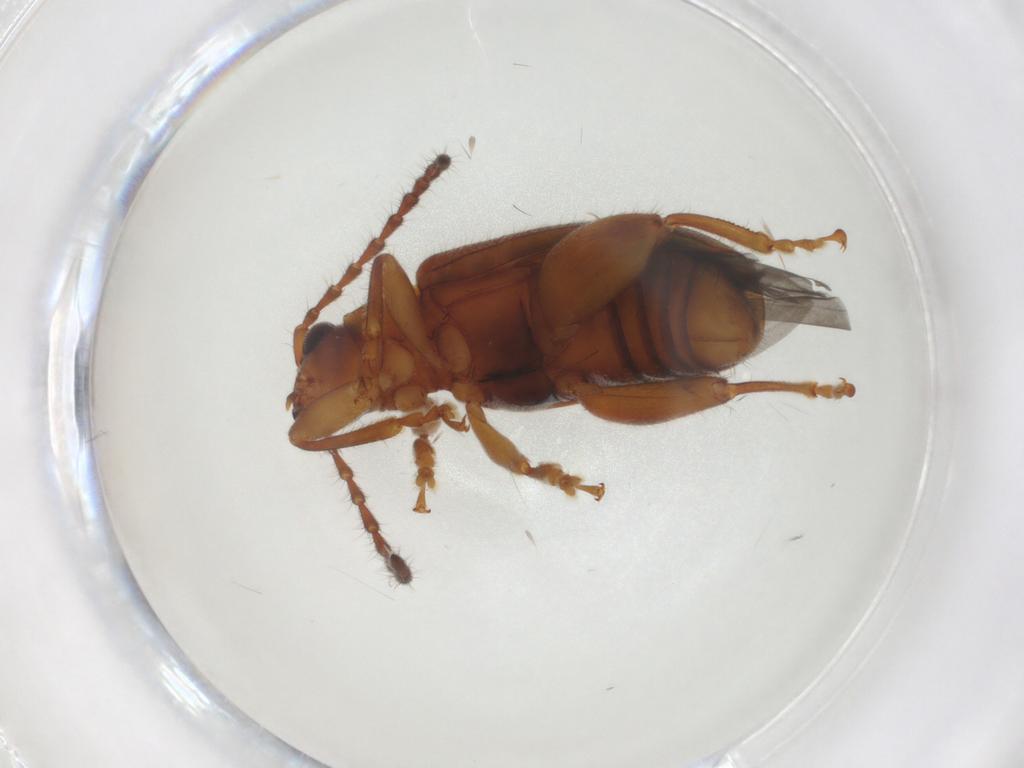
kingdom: Animalia
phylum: Arthropoda
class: Insecta
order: Coleoptera
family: Chrysomelidae
